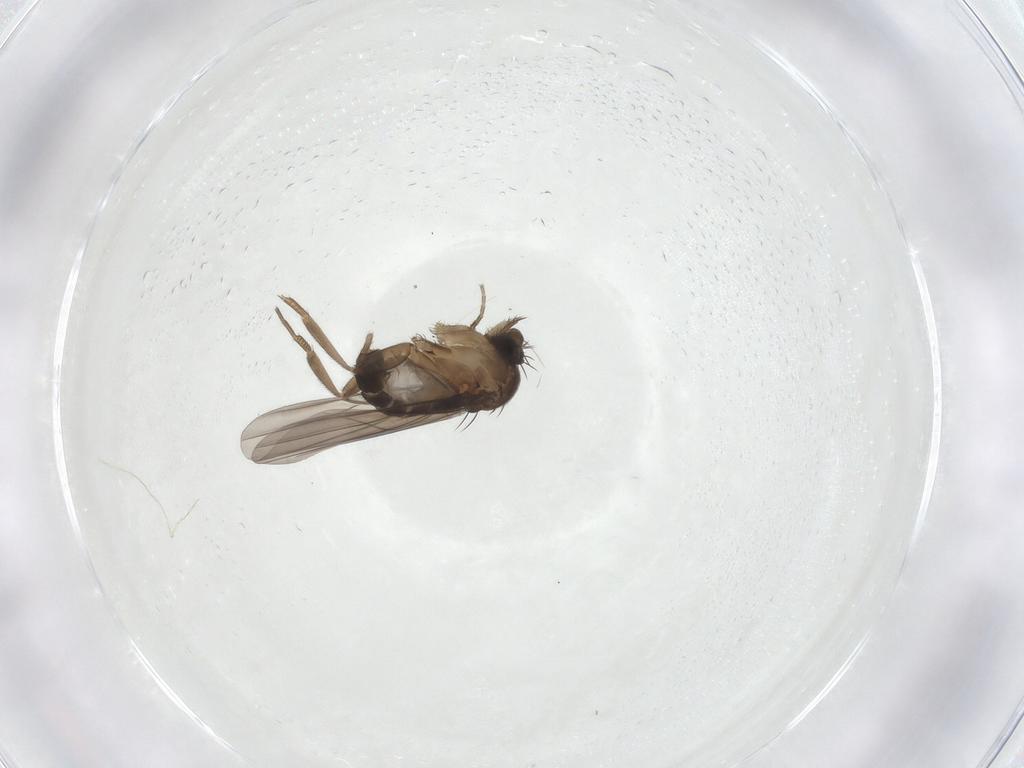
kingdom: Animalia
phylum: Arthropoda
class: Insecta
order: Diptera
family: Phoridae
